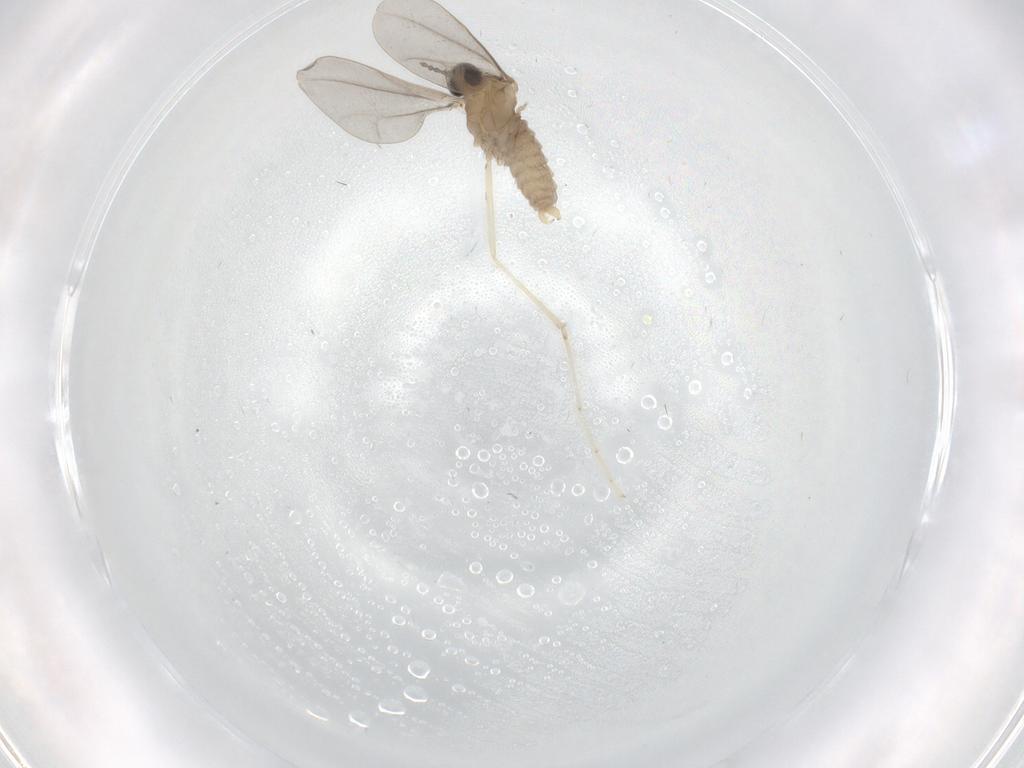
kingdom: Animalia
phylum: Arthropoda
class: Insecta
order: Diptera
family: Cecidomyiidae
